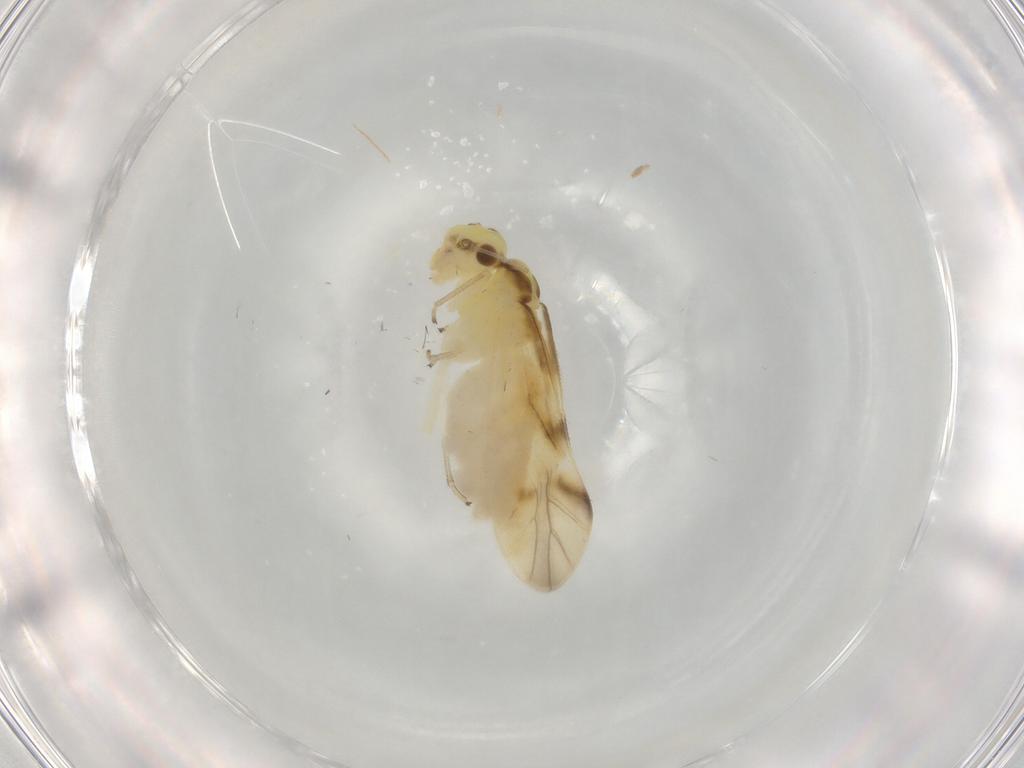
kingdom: Animalia
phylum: Arthropoda
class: Insecta
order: Psocodea
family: Caeciliusidae
